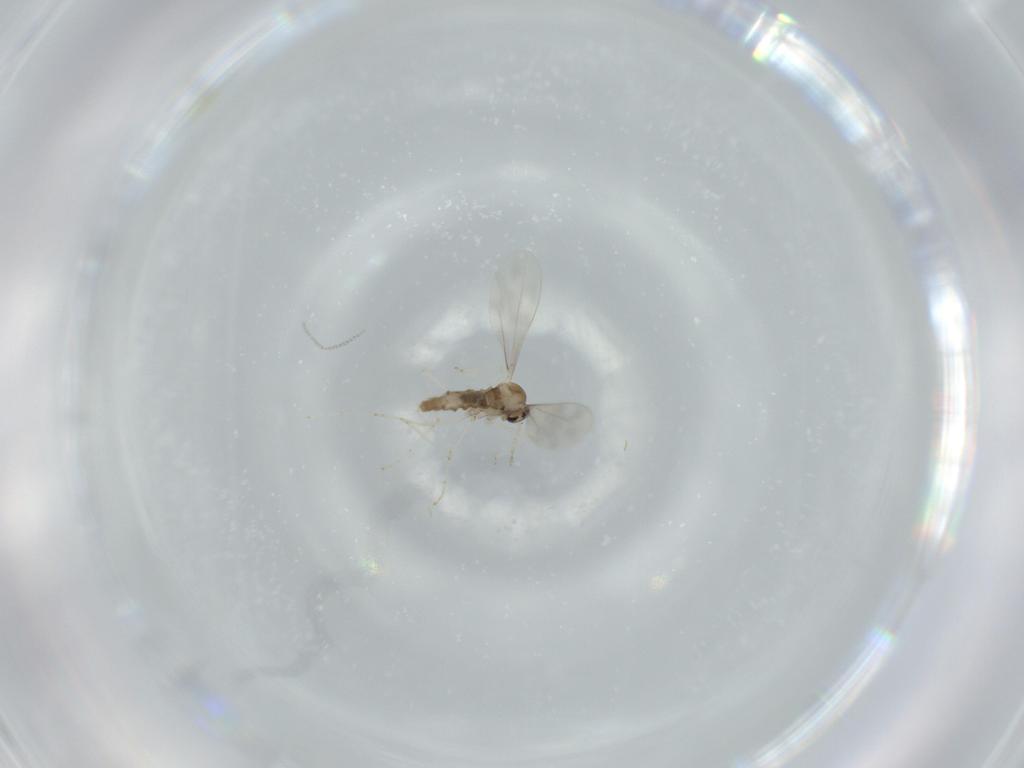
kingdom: Animalia
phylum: Arthropoda
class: Insecta
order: Diptera
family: Cecidomyiidae
